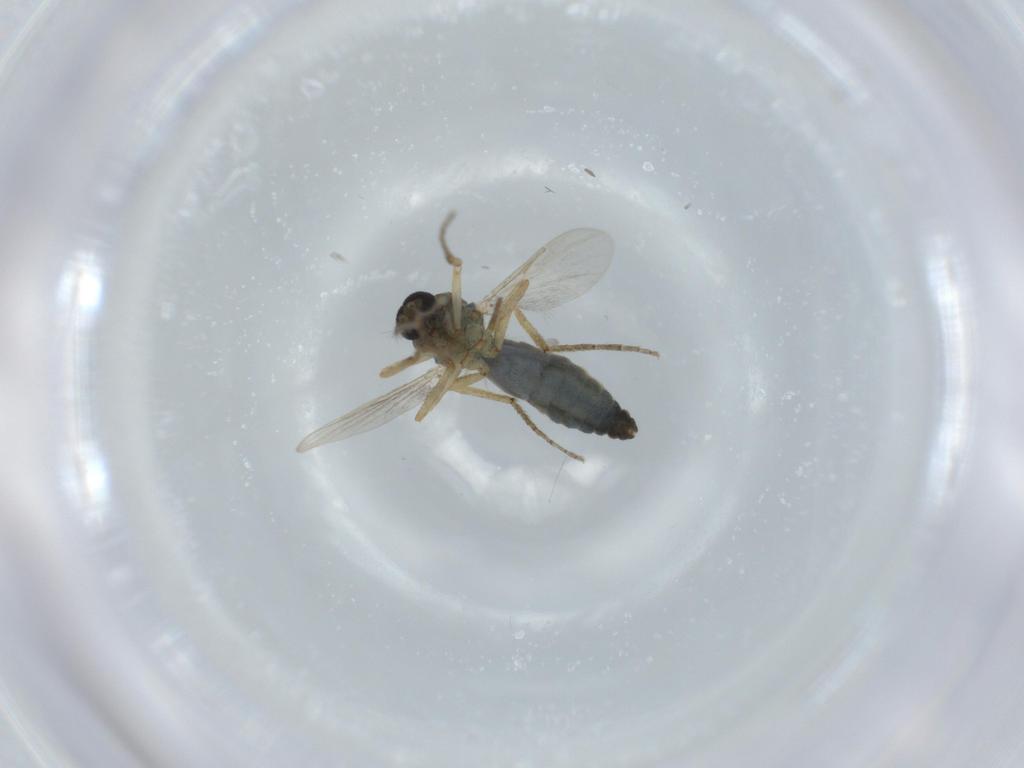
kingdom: Animalia
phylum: Arthropoda
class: Insecta
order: Diptera
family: Ceratopogonidae
